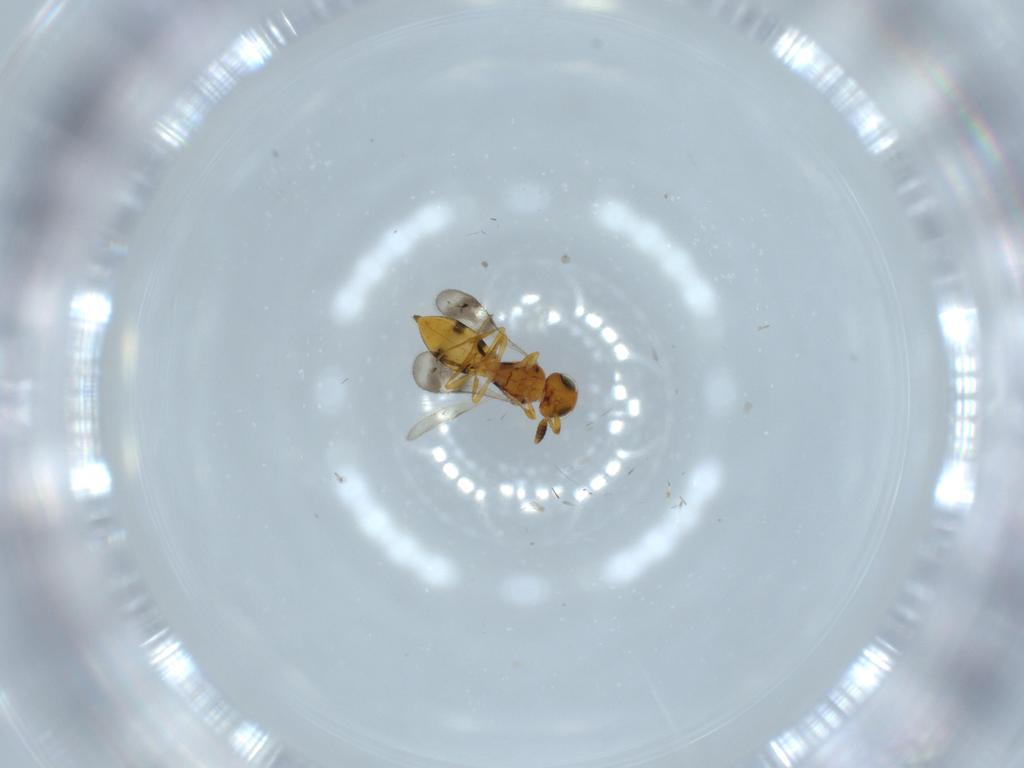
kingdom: Animalia
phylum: Arthropoda
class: Insecta
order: Hymenoptera
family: Scelionidae
